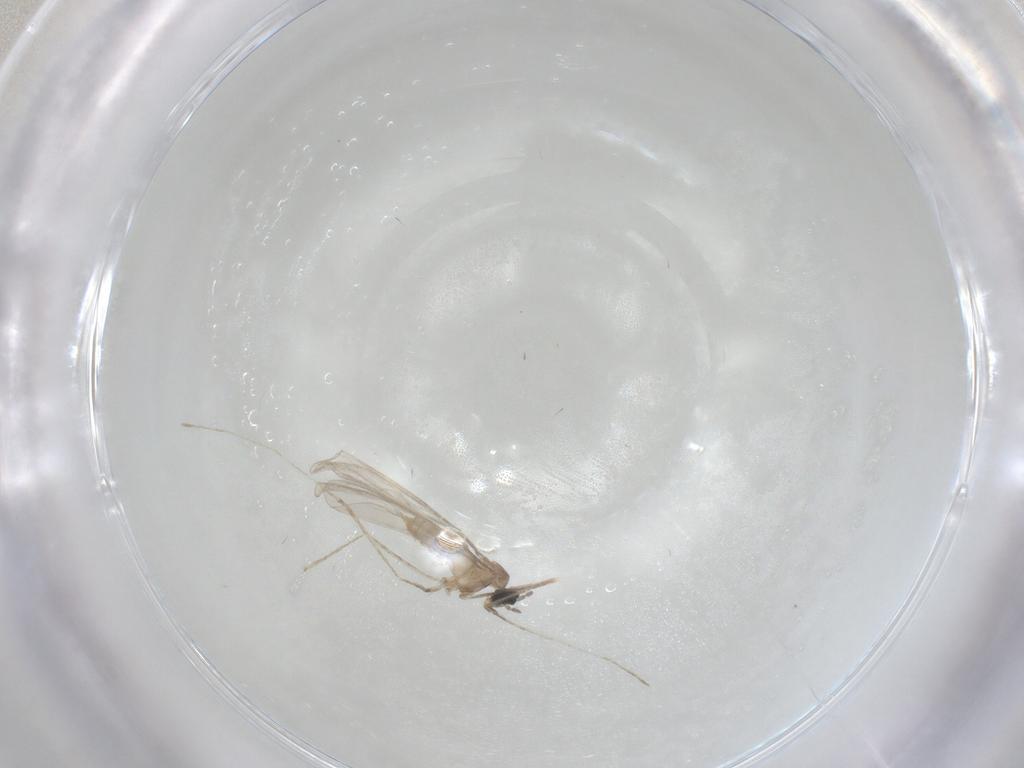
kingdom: Animalia
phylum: Arthropoda
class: Insecta
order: Diptera
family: Cecidomyiidae
